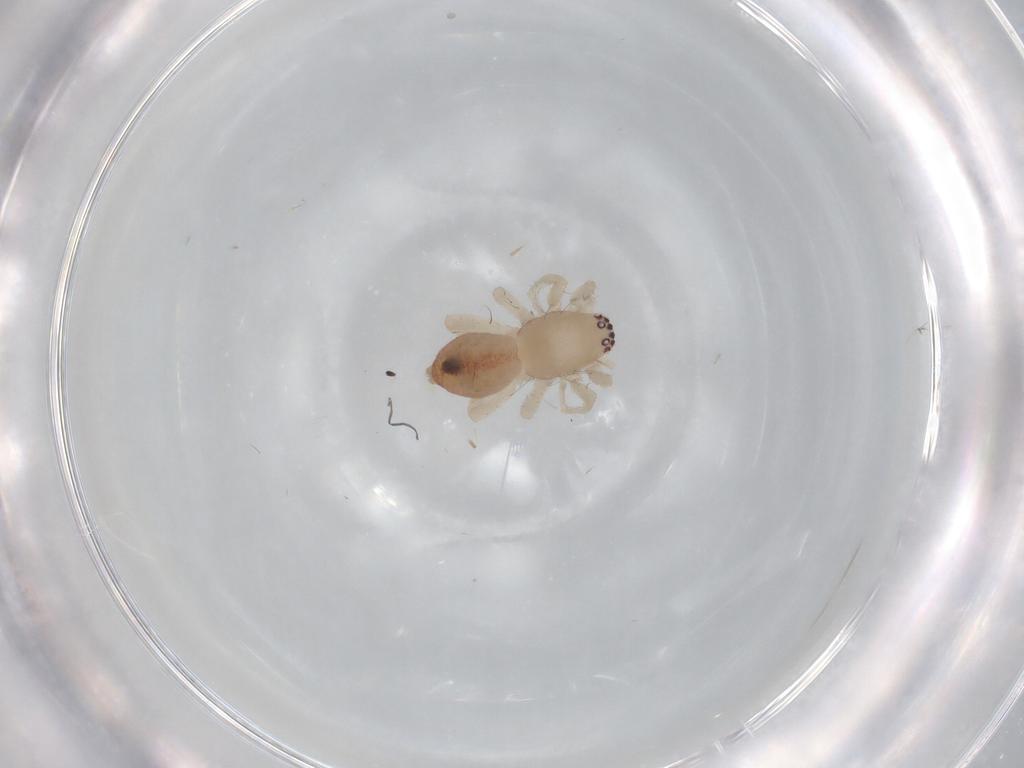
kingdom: Animalia
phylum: Arthropoda
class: Arachnida
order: Araneae
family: Clubionidae
